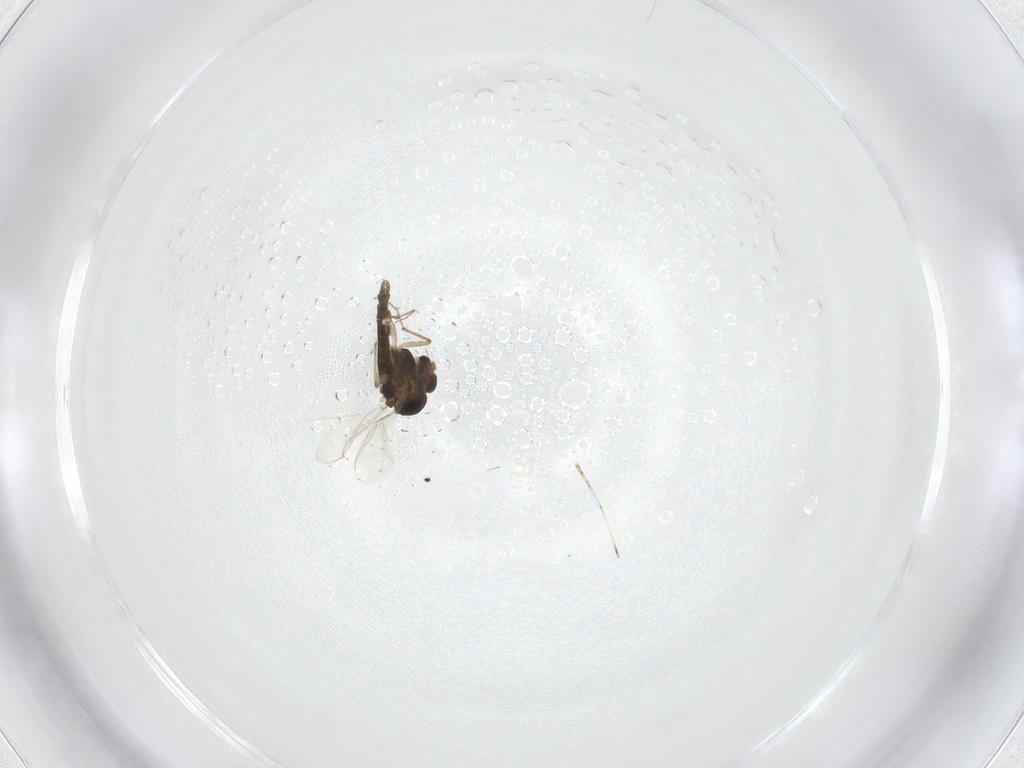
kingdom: Animalia
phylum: Arthropoda
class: Insecta
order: Diptera
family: Chironomidae
